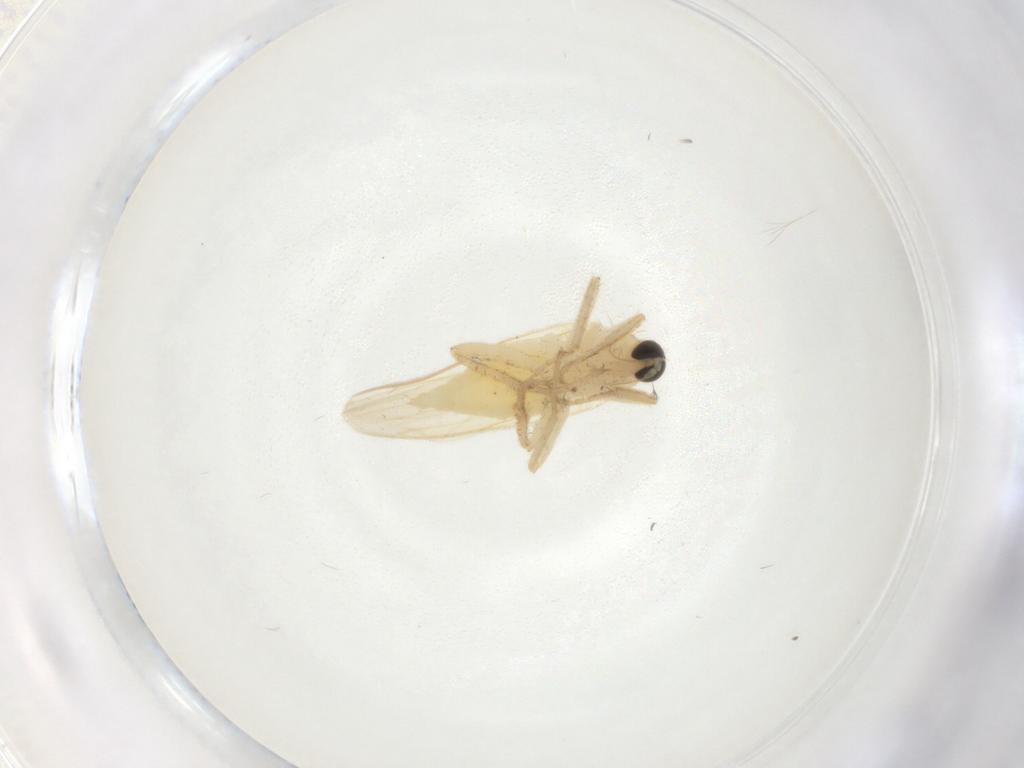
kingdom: Animalia
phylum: Arthropoda
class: Insecta
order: Diptera
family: Hybotidae
